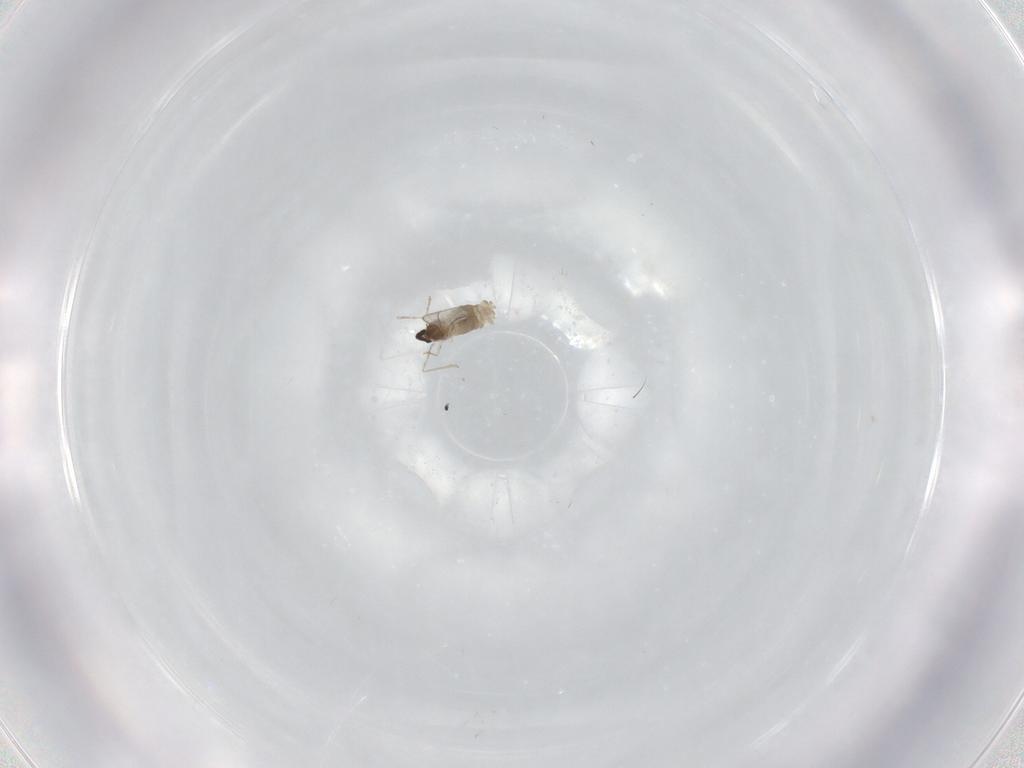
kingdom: Animalia
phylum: Arthropoda
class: Insecta
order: Diptera
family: Cecidomyiidae
